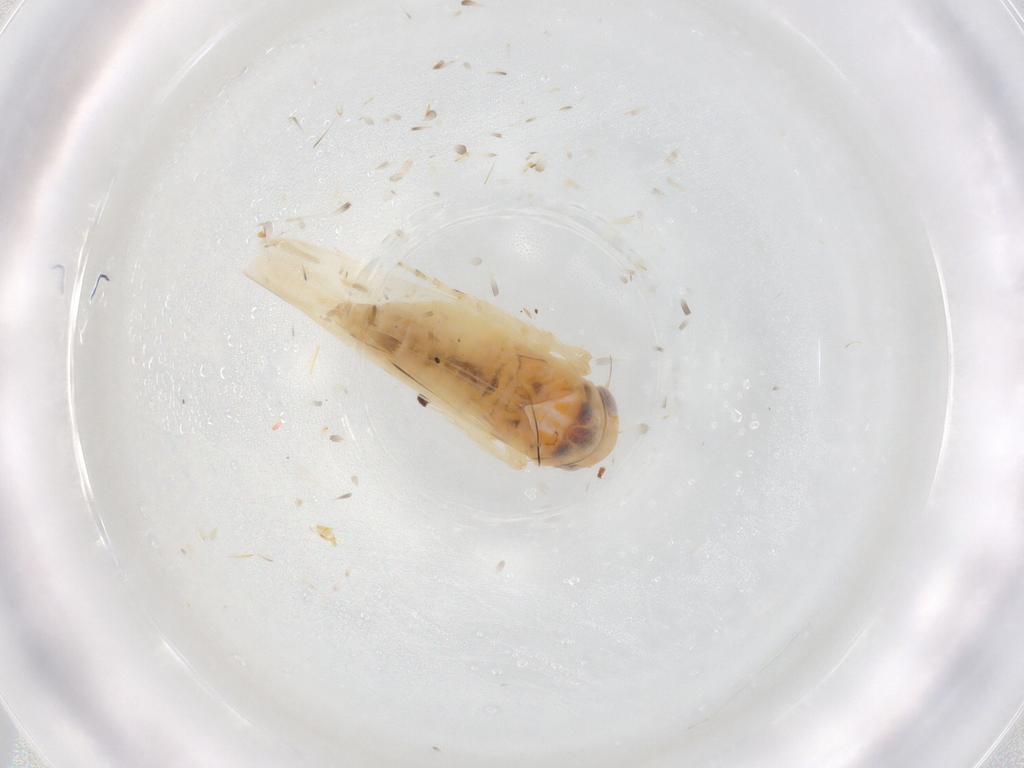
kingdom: Animalia
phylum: Arthropoda
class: Insecta
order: Hemiptera
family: Cicadellidae
